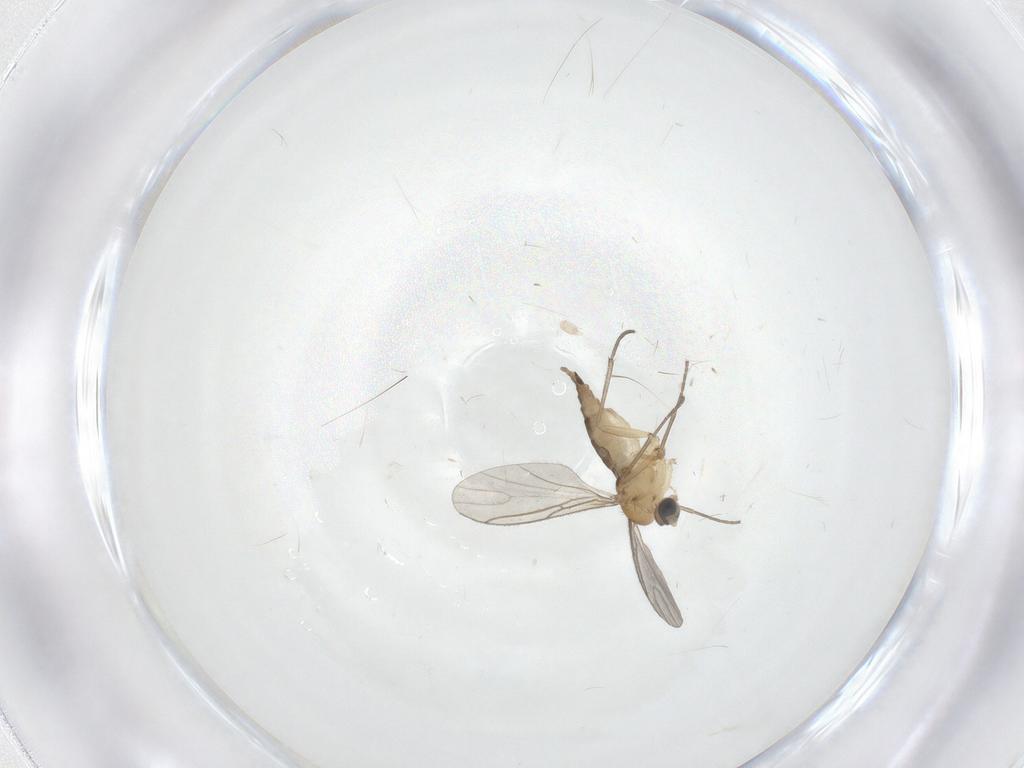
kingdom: Animalia
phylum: Arthropoda
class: Insecta
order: Diptera
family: Sciaridae
